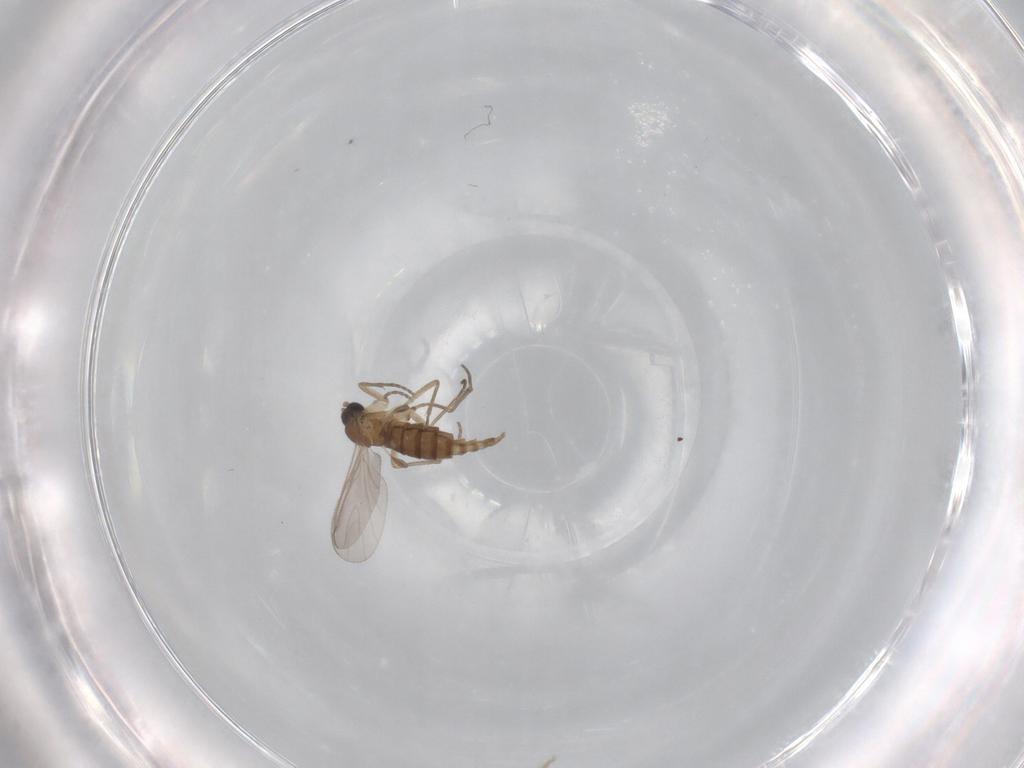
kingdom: Animalia
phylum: Arthropoda
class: Insecta
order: Diptera
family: Sciaridae
